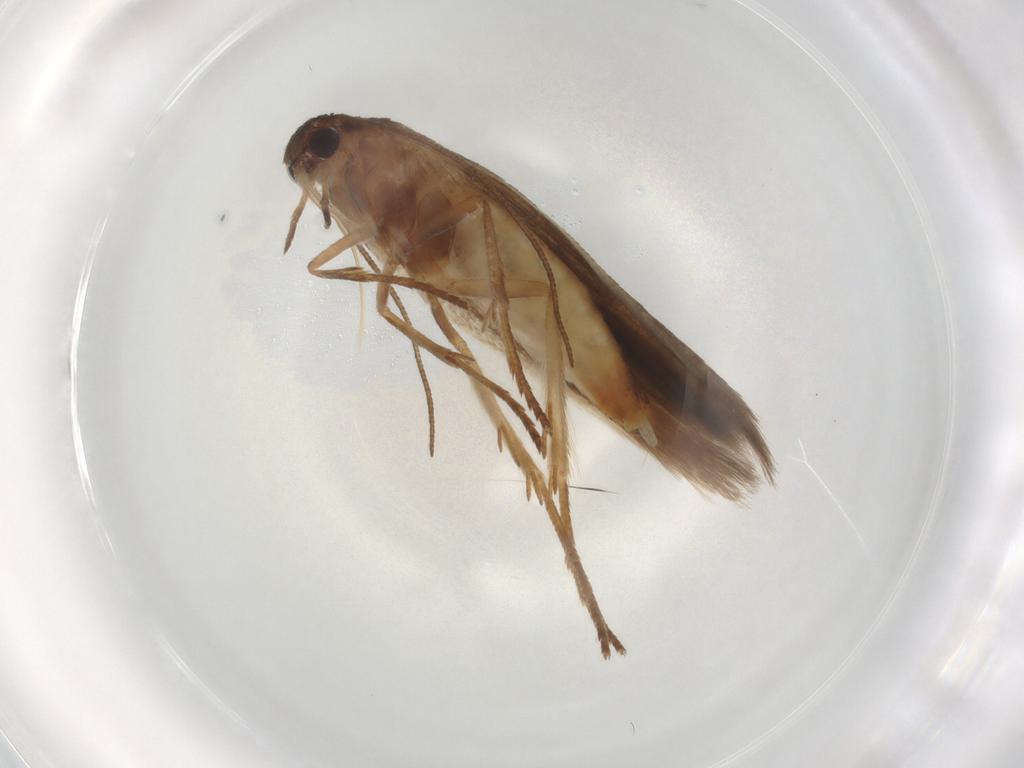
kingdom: Animalia
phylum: Arthropoda
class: Insecta
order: Lepidoptera
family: Cosmopterigidae
